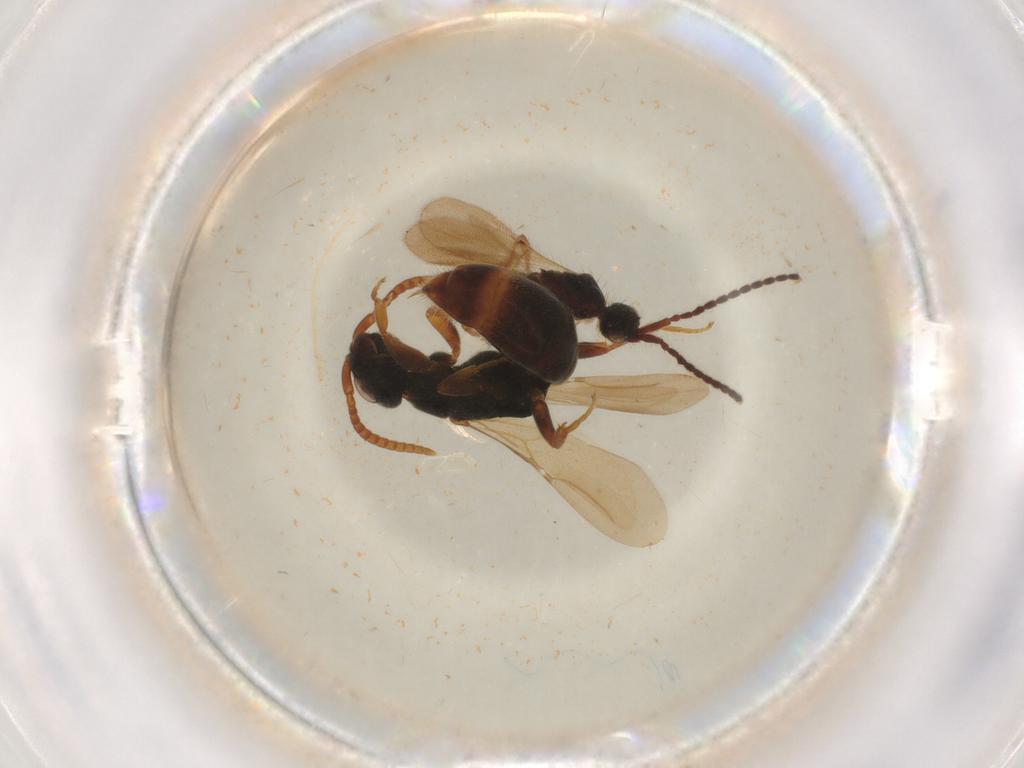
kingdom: Animalia
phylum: Arthropoda
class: Insecta
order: Hymenoptera
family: Diapriidae
